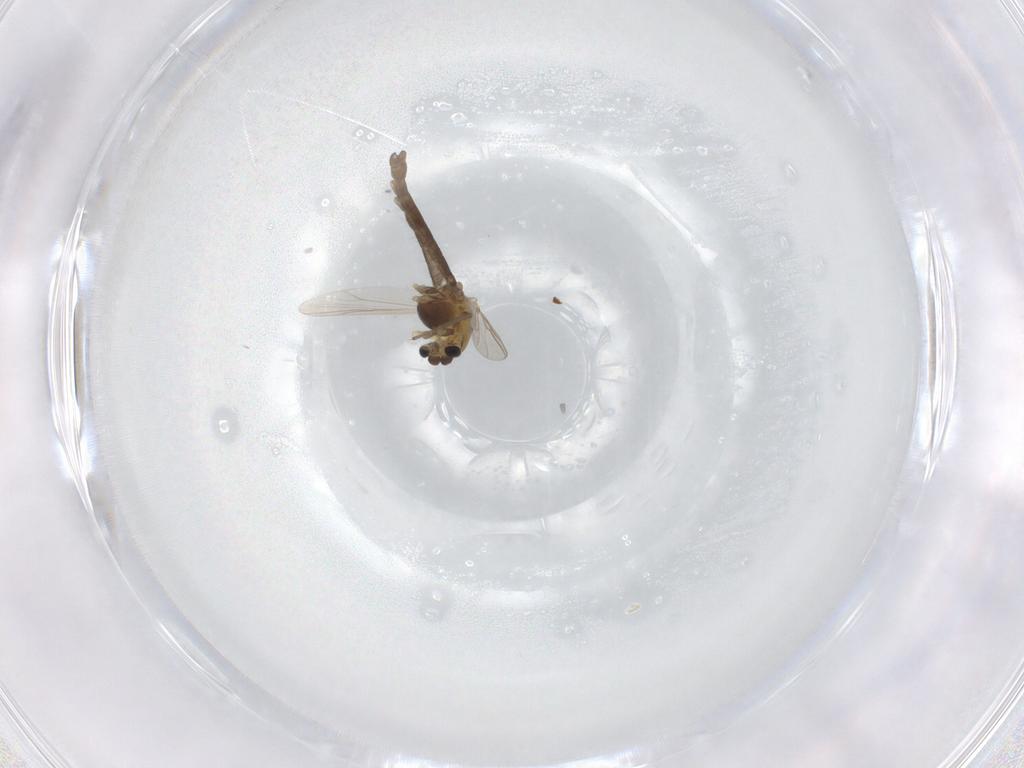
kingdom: Animalia
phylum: Arthropoda
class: Insecta
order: Diptera
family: Chironomidae
